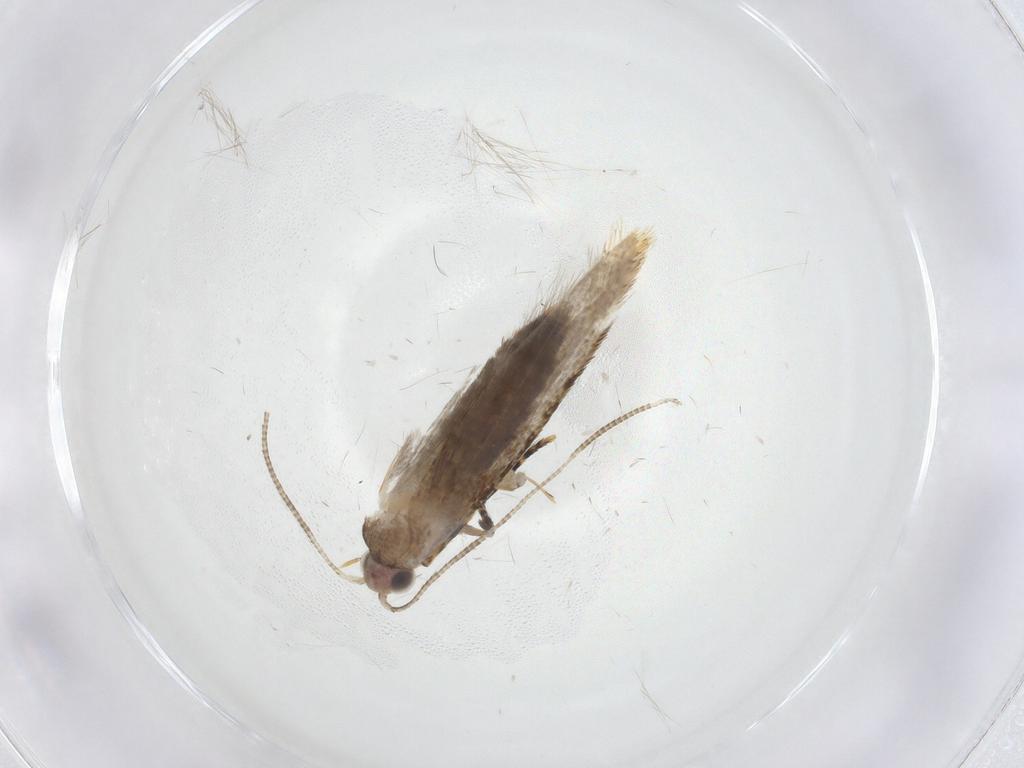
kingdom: Animalia
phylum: Arthropoda
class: Insecta
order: Lepidoptera
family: Tineidae
